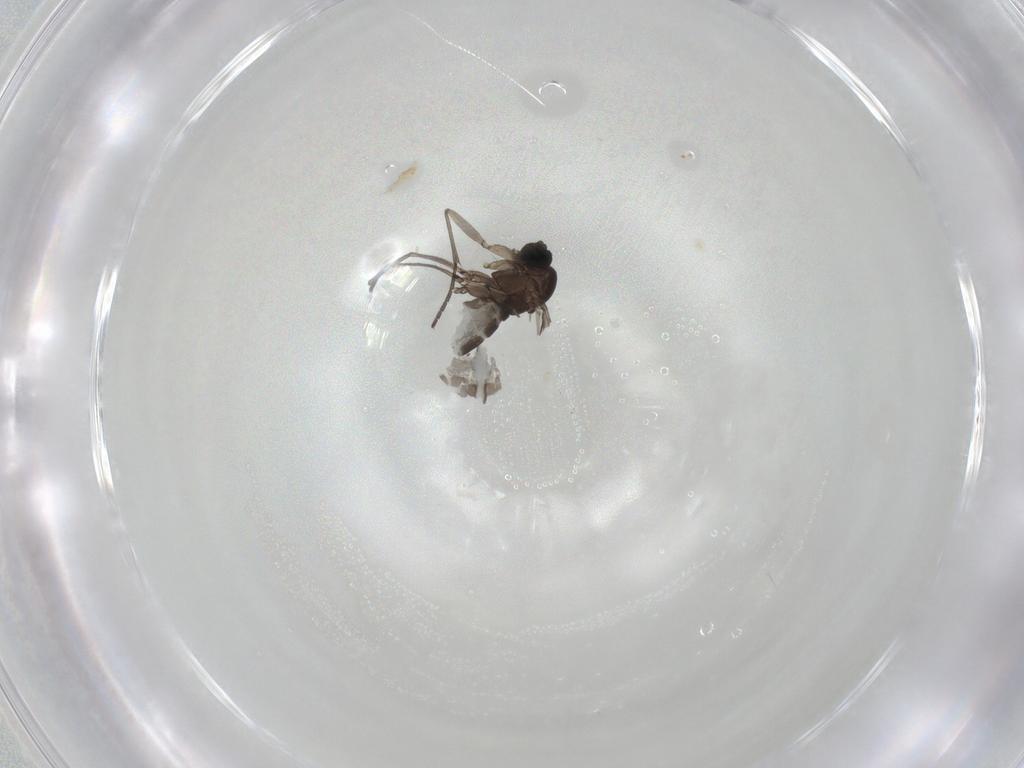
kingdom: Animalia
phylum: Arthropoda
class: Insecta
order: Diptera
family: Sciaridae
